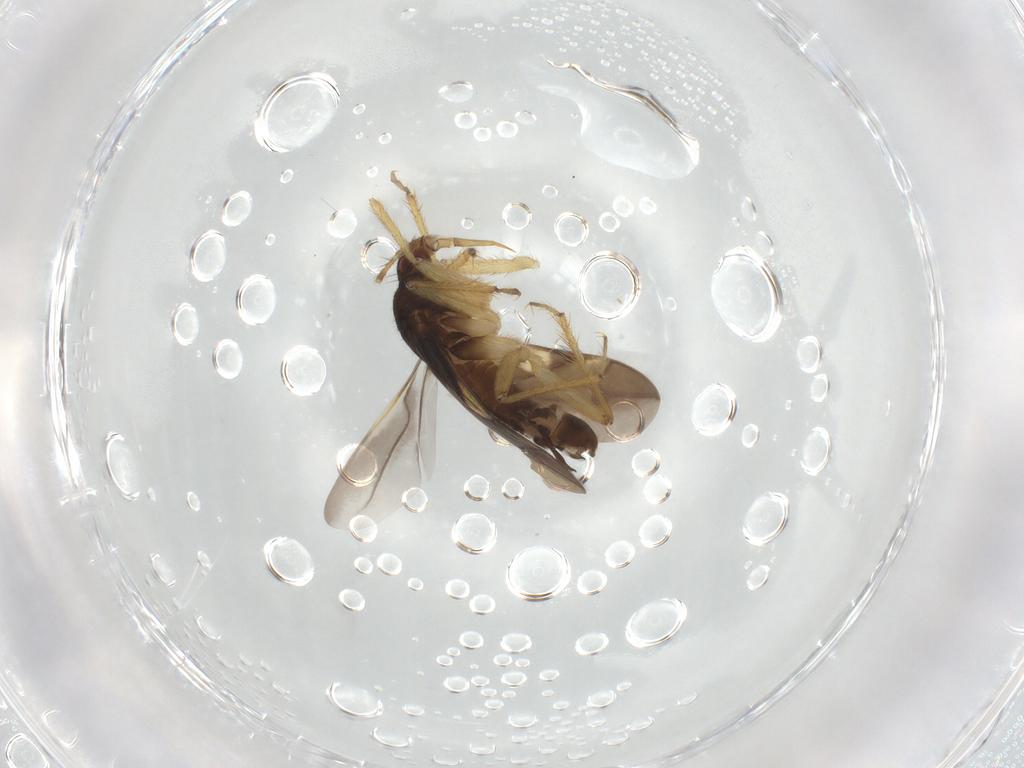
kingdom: Animalia
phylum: Arthropoda
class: Insecta
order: Hemiptera
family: Ceratocombidae
